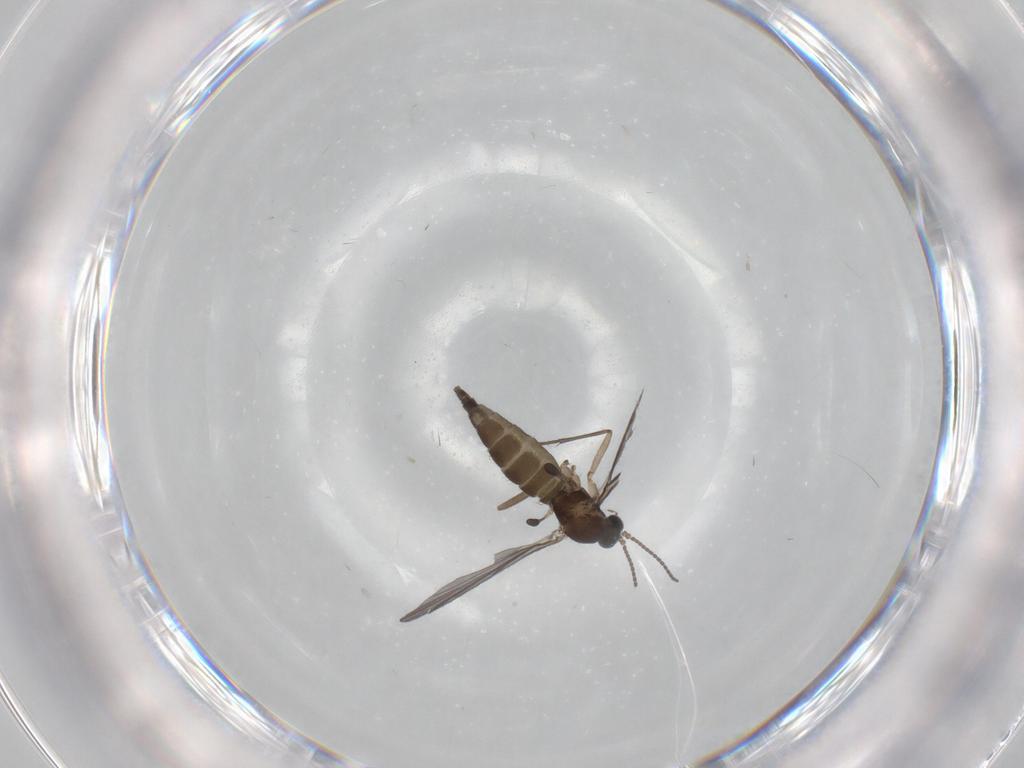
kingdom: Animalia
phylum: Arthropoda
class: Insecta
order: Diptera
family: Sciaridae
